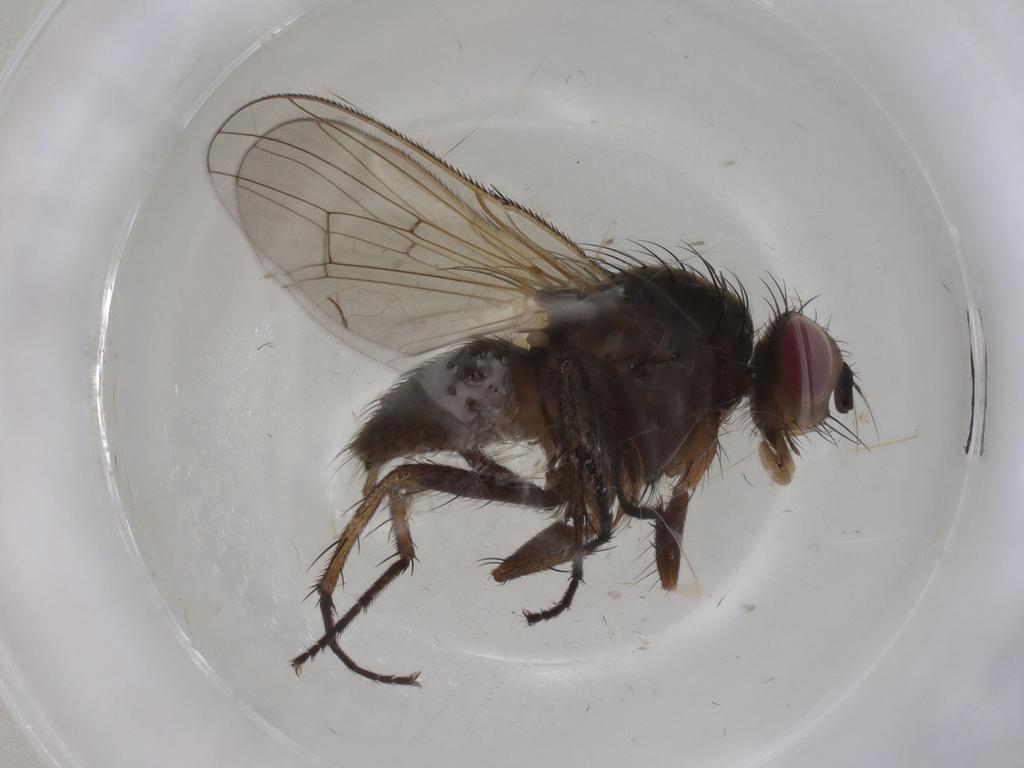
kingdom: Animalia
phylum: Arthropoda
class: Insecta
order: Diptera
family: Anthomyiidae
